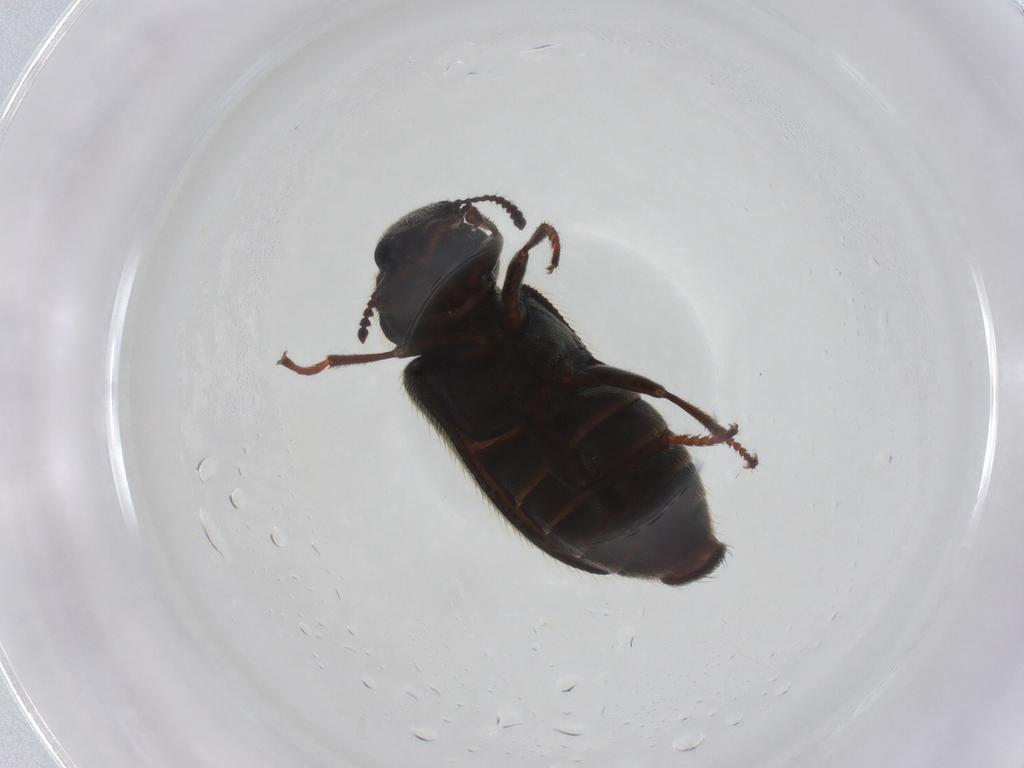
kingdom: Animalia
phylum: Arthropoda
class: Insecta
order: Coleoptera
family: Melyridae
